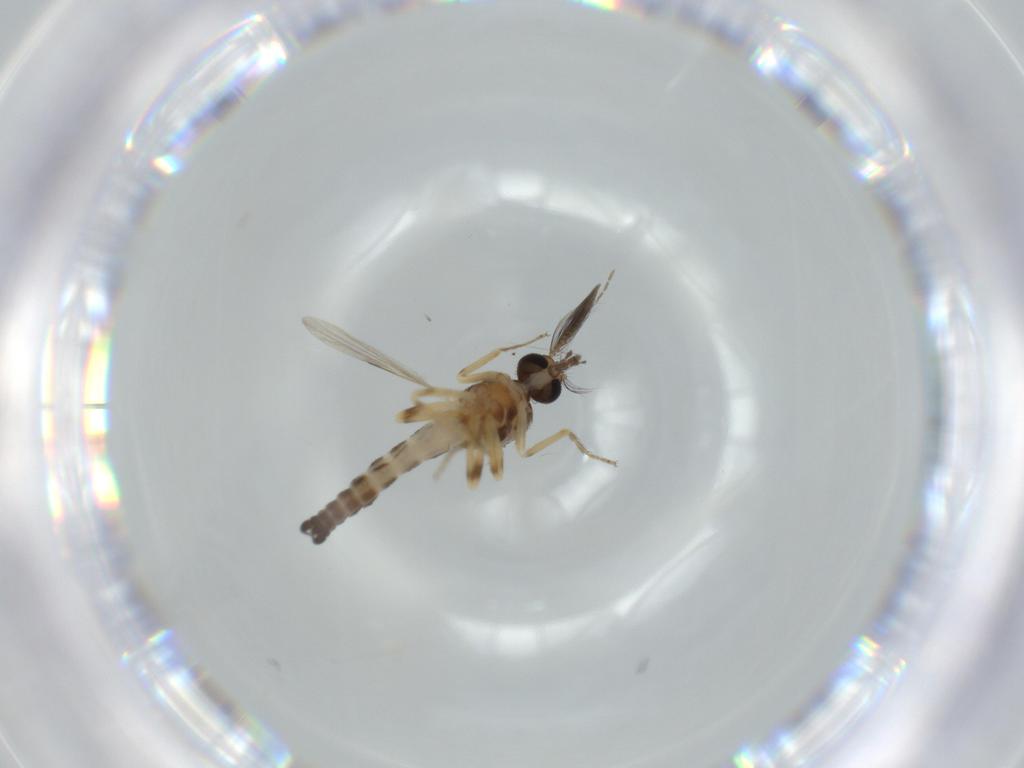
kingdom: Animalia
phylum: Arthropoda
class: Insecta
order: Diptera
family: Ceratopogonidae
